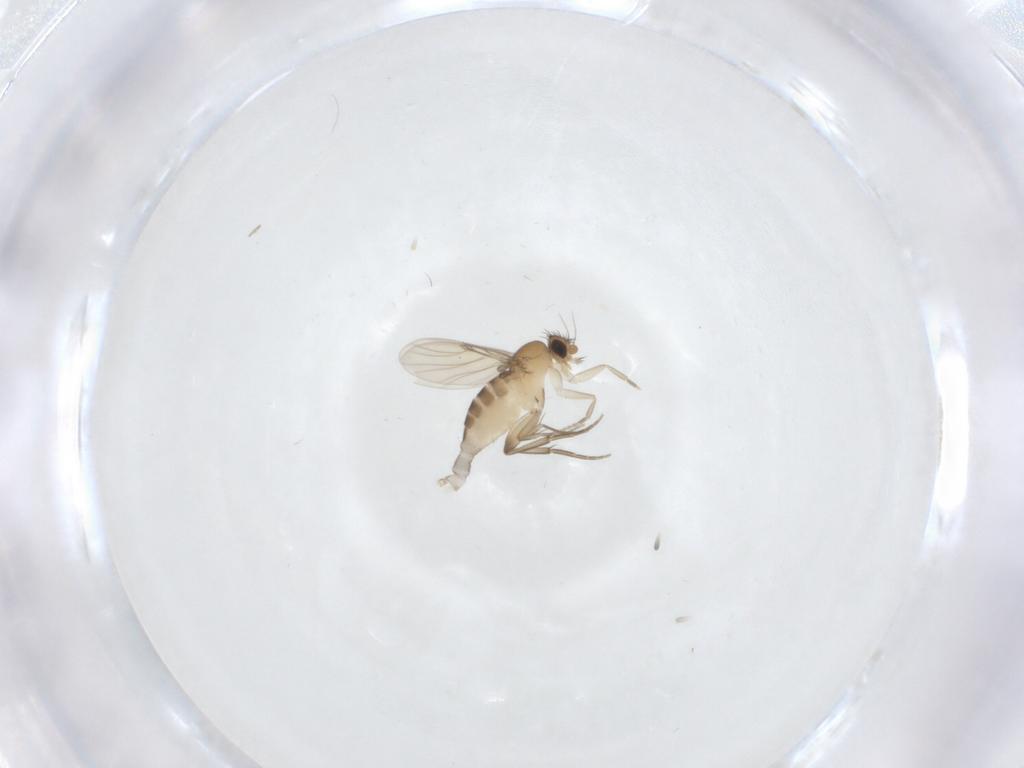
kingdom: Animalia
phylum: Arthropoda
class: Insecta
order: Diptera
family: Phoridae
